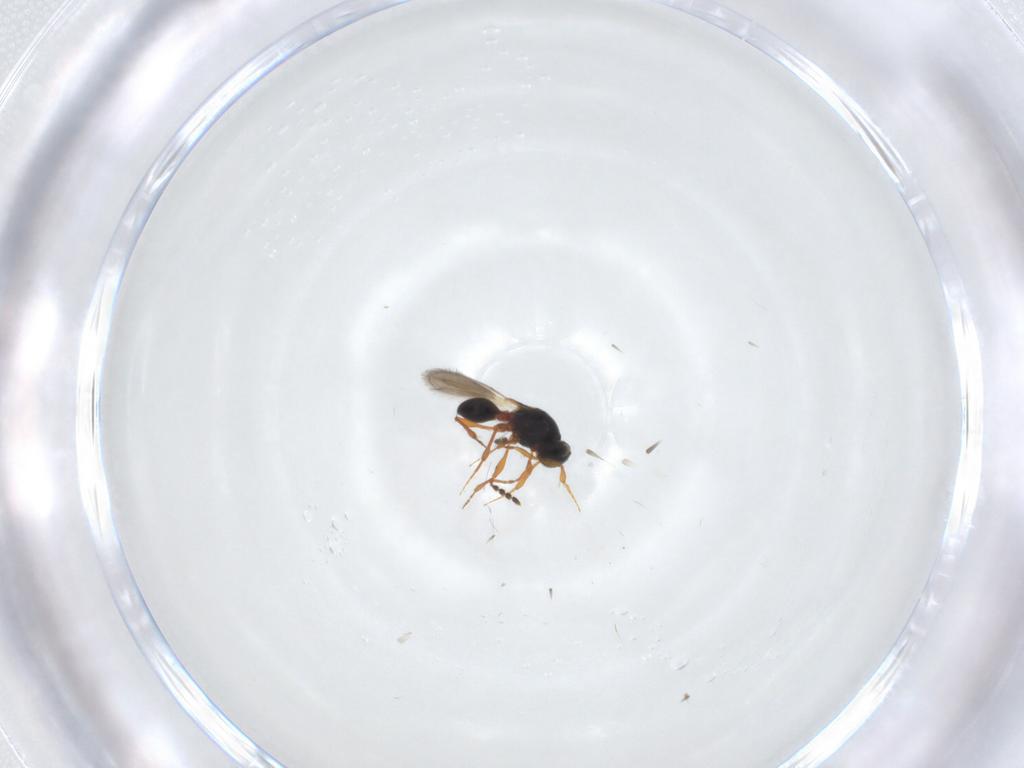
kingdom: Animalia
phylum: Arthropoda
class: Insecta
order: Hymenoptera
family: Platygastridae
